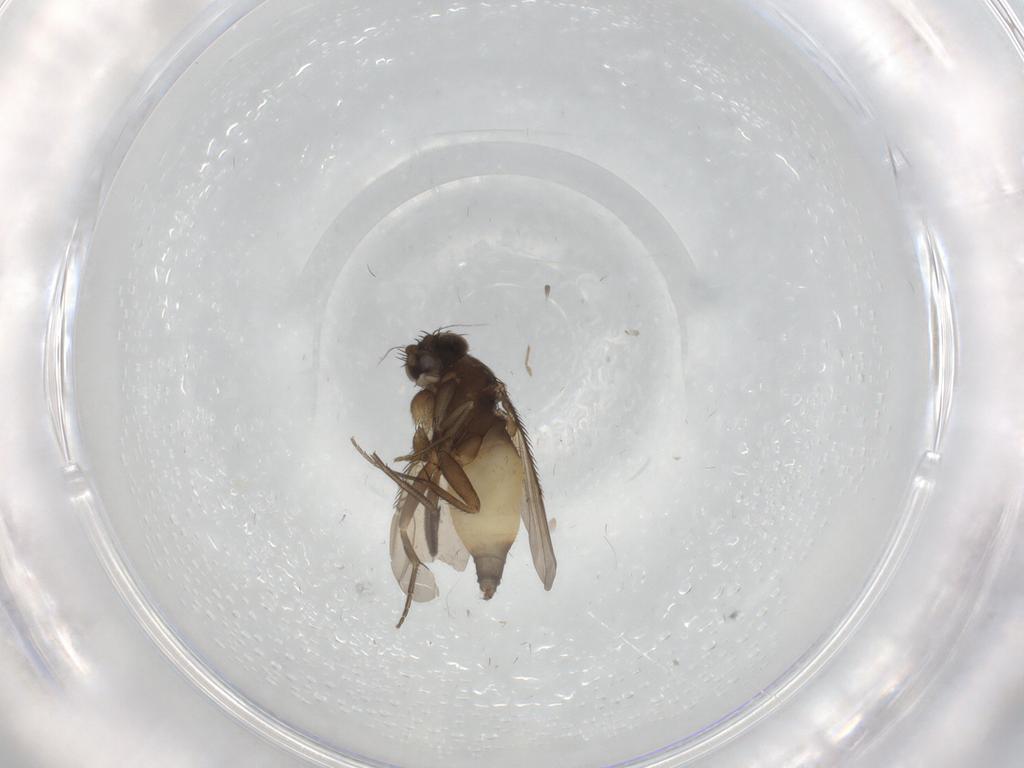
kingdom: Animalia
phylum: Arthropoda
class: Insecta
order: Diptera
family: Phoridae
